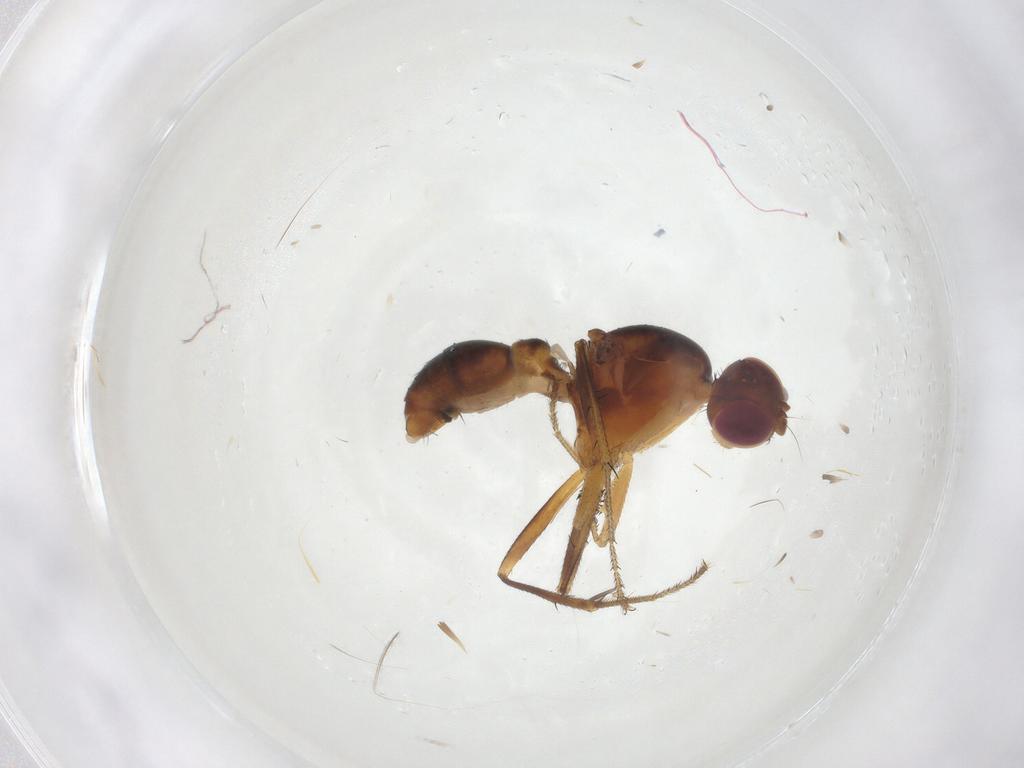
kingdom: Animalia
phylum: Arthropoda
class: Insecta
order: Diptera
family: Sepsidae
